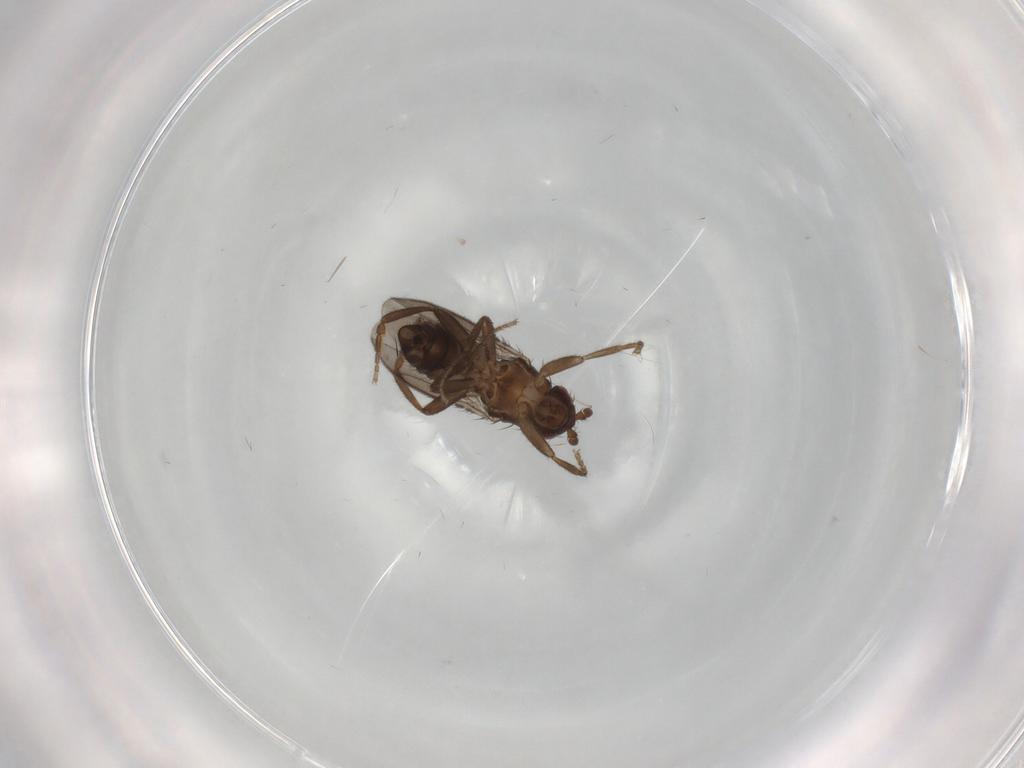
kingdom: Animalia
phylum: Arthropoda
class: Insecta
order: Diptera
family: Sphaeroceridae
